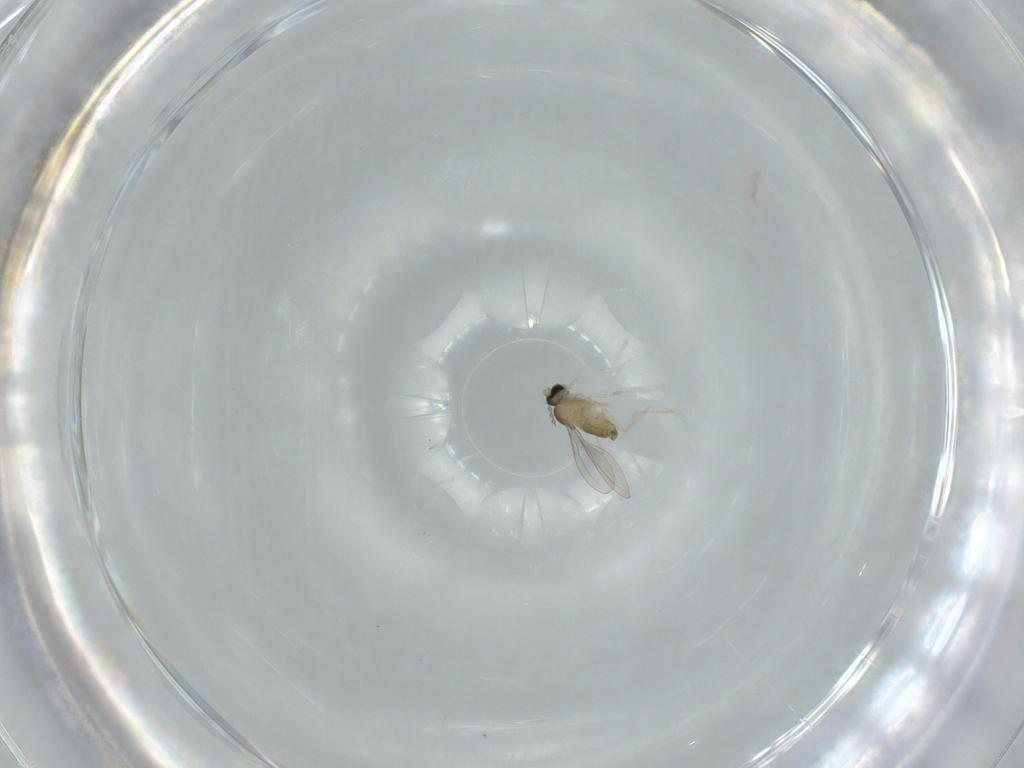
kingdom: Animalia
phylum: Arthropoda
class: Insecta
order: Diptera
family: Cecidomyiidae
